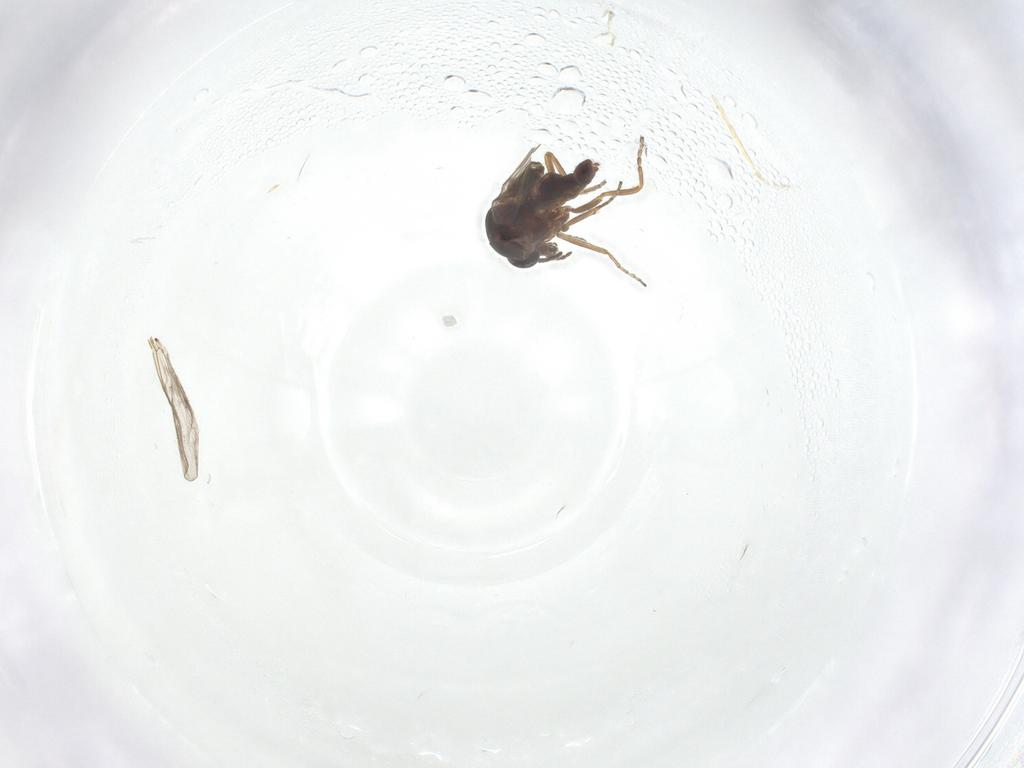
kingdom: Animalia
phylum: Arthropoda
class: Insecta
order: Diptera
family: Ceratopogonidae
